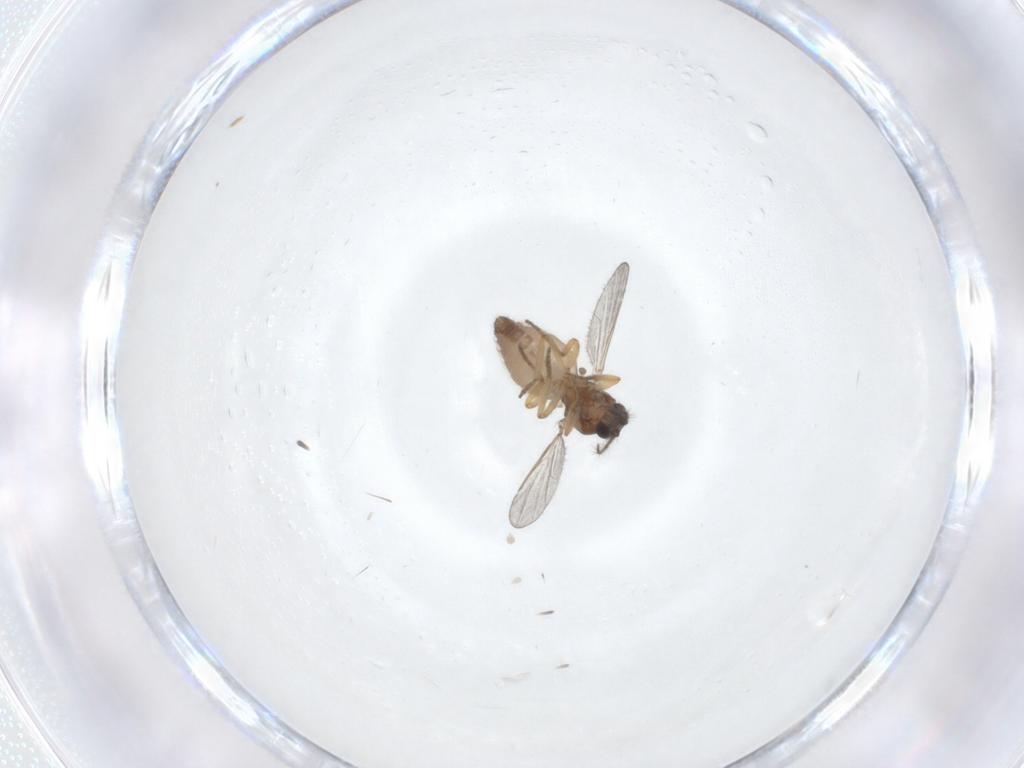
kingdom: Animalia
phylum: Arthropoda
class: Insecta
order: Diptera
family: Ceratopogonidae
